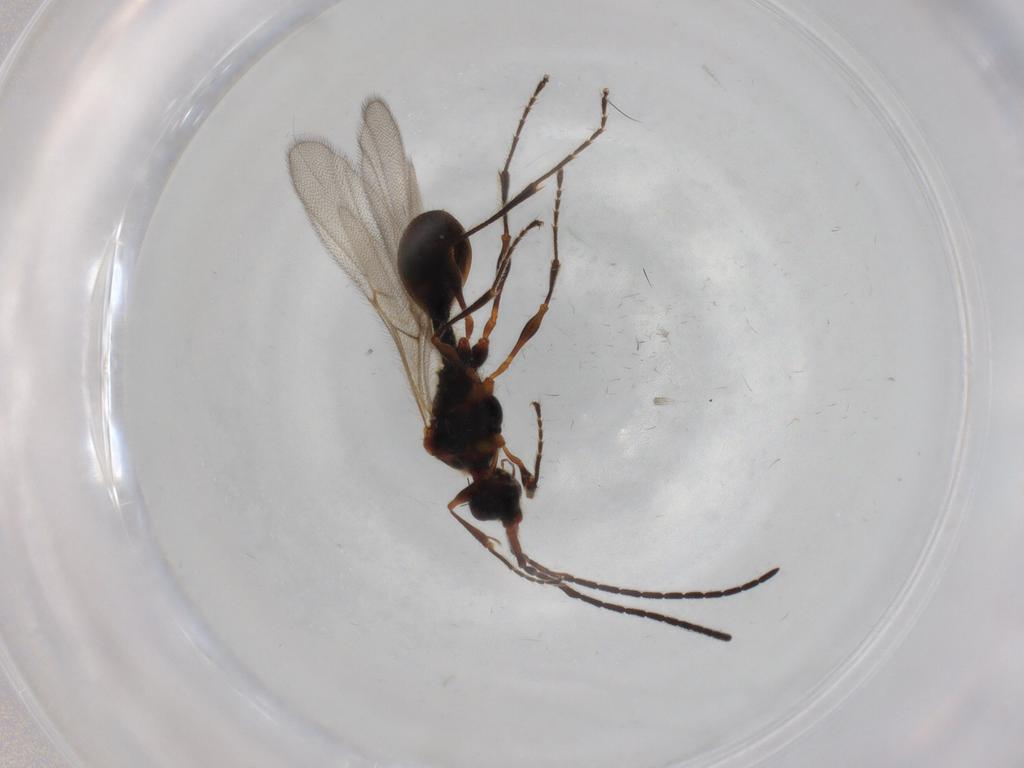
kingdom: Animalia
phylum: Arthropoda
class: Insecta
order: Hymenoptera
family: Diapriidae
